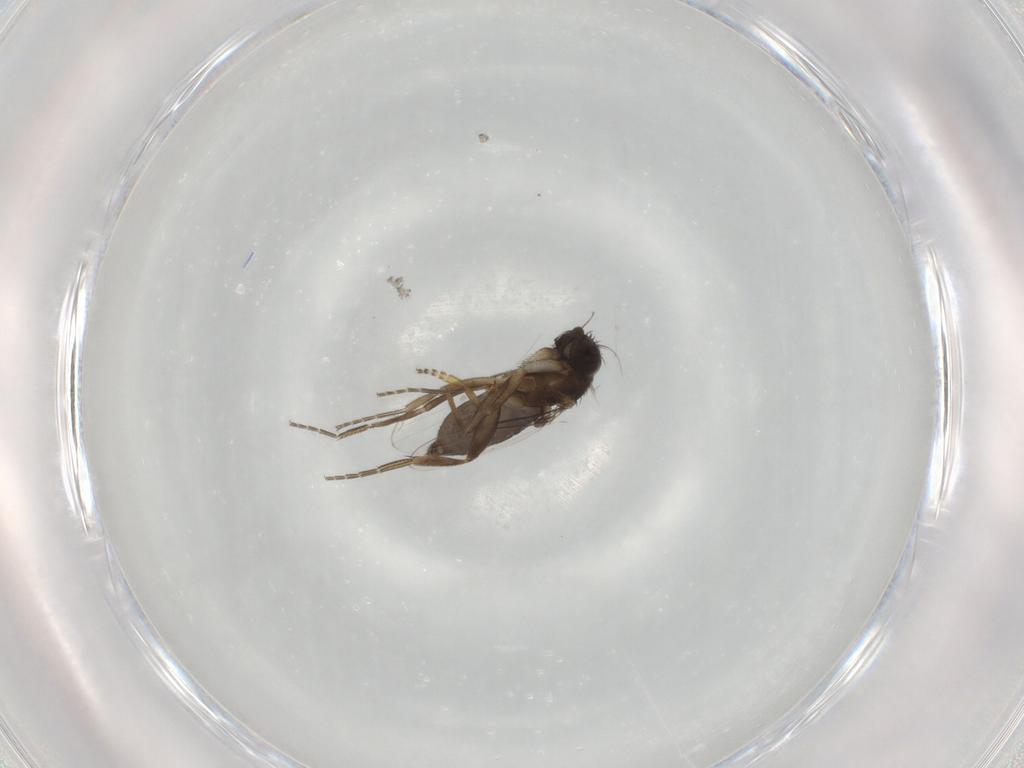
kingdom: Animalia
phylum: Arthropoda
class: Insecta
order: Diptera
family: Phoridae
